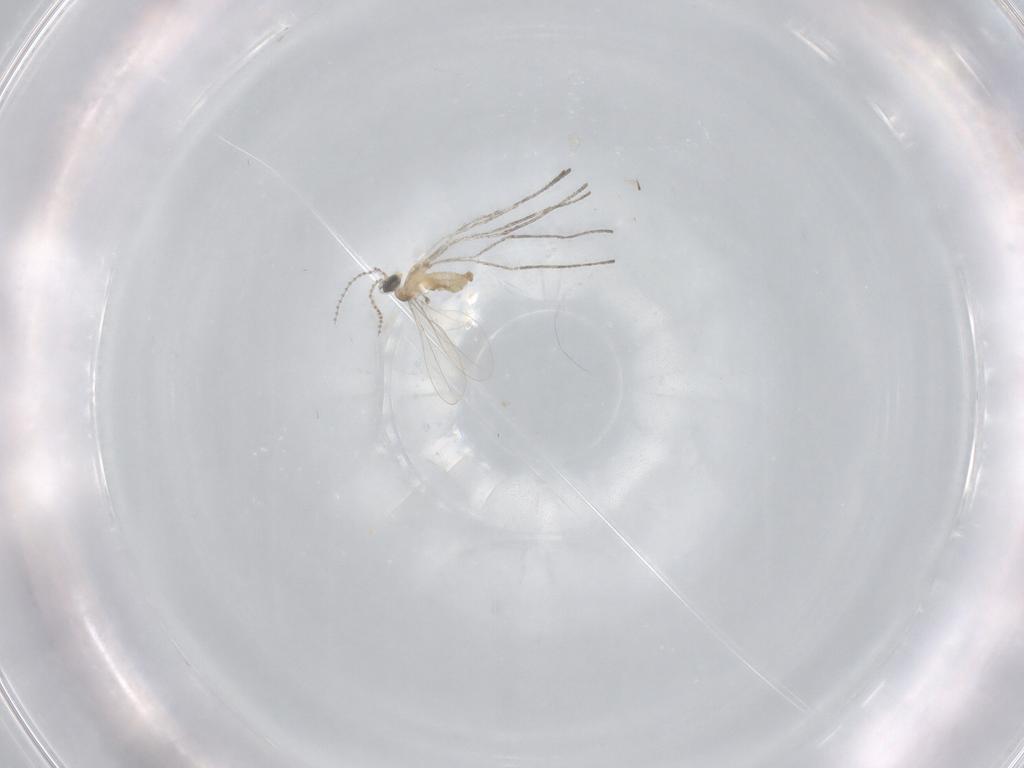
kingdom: Animalia
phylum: Arthropoda
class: Insecta
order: Diptera
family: Cecidomyiidae
